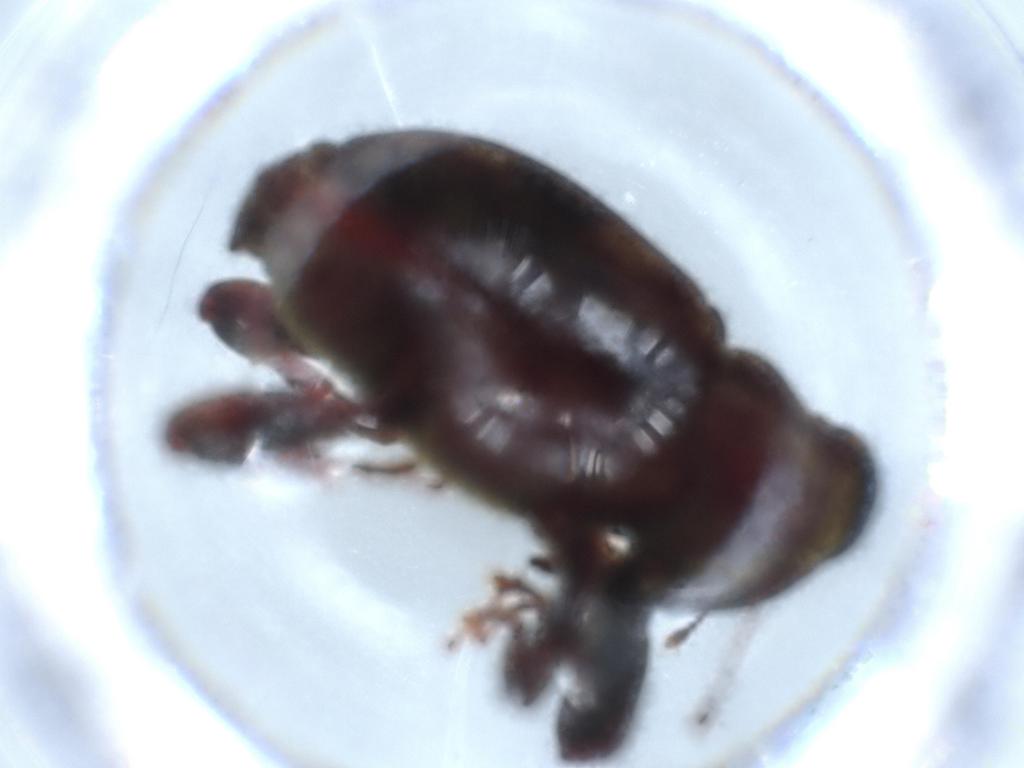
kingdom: Animalia
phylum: Arthropoda
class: Insecta
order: Coleoptera
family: Curculionidae
